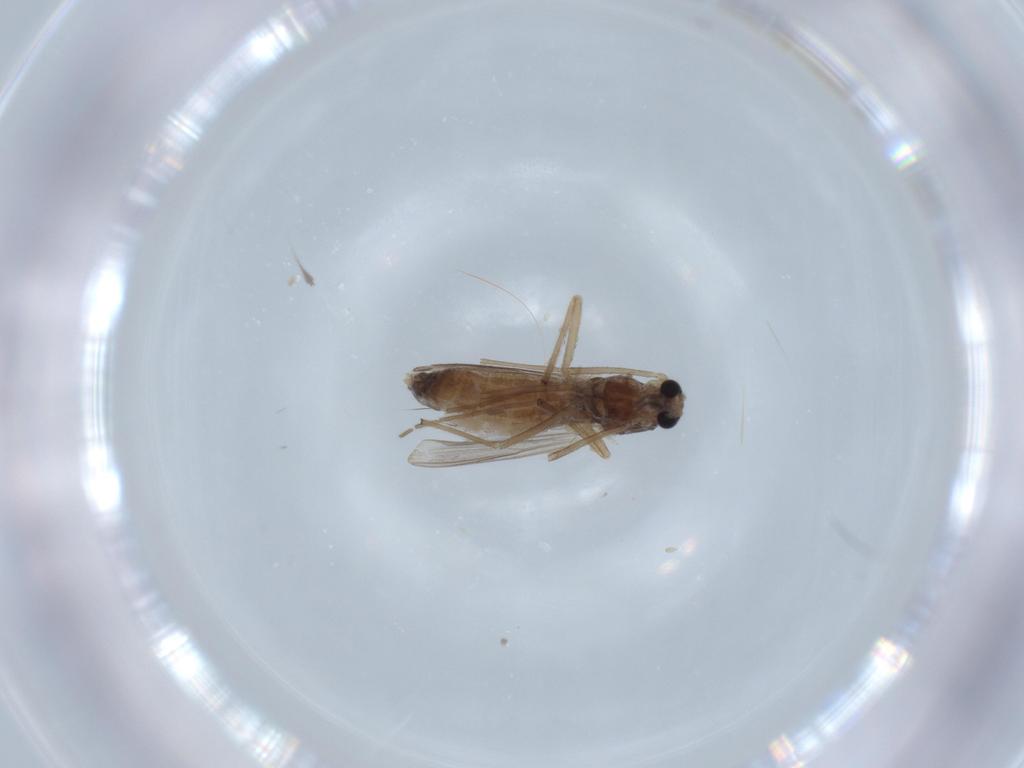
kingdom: Animalia
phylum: Arthropoda
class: Insecta
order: Diptera
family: Chironomidae
